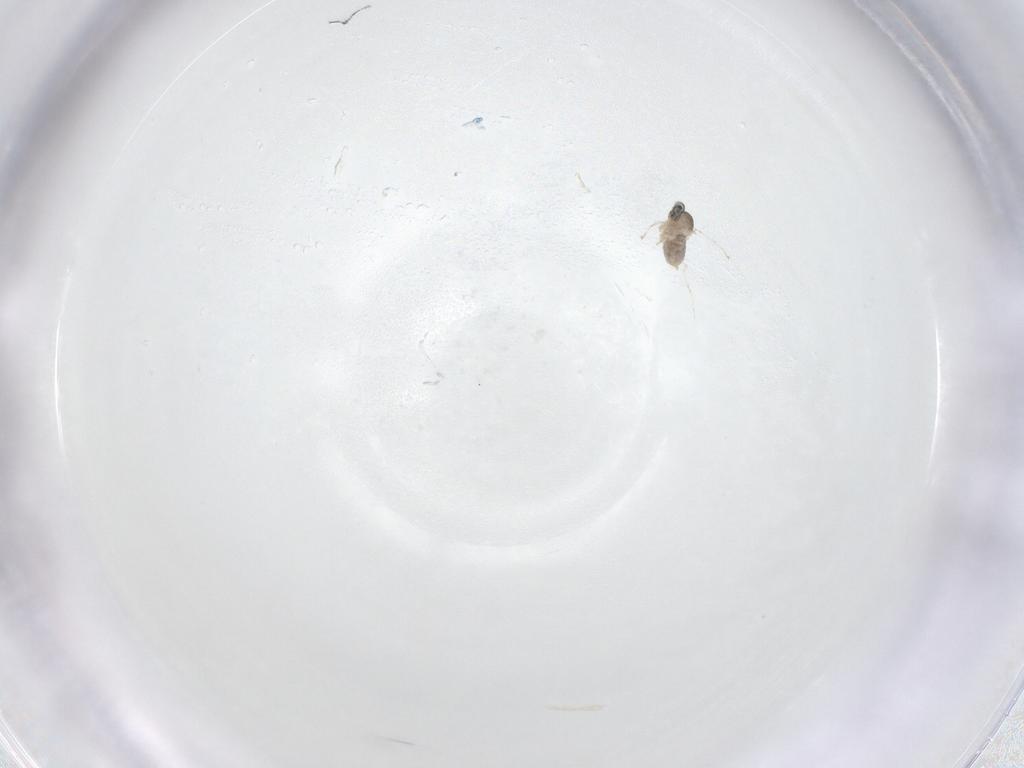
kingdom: Animalia
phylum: Arthropoda
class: Insecta
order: Diptera
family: Cecidomyiidae
